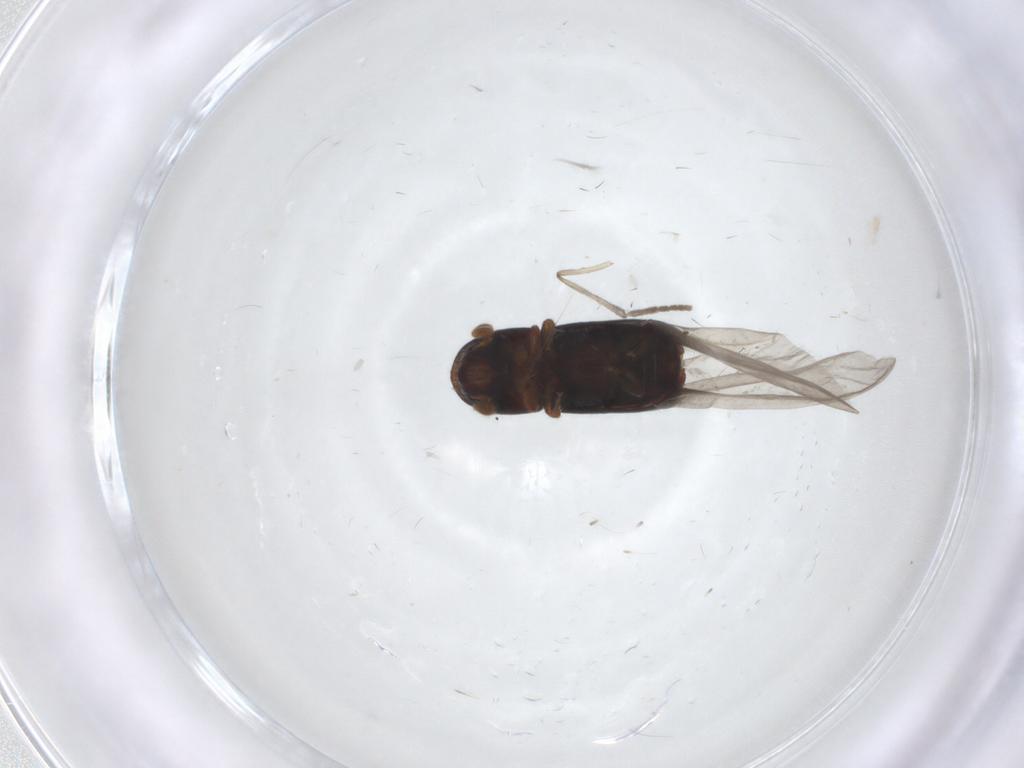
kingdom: Animalia
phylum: Arthropoda
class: Insecta
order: Coleoptera
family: Curculionidae
